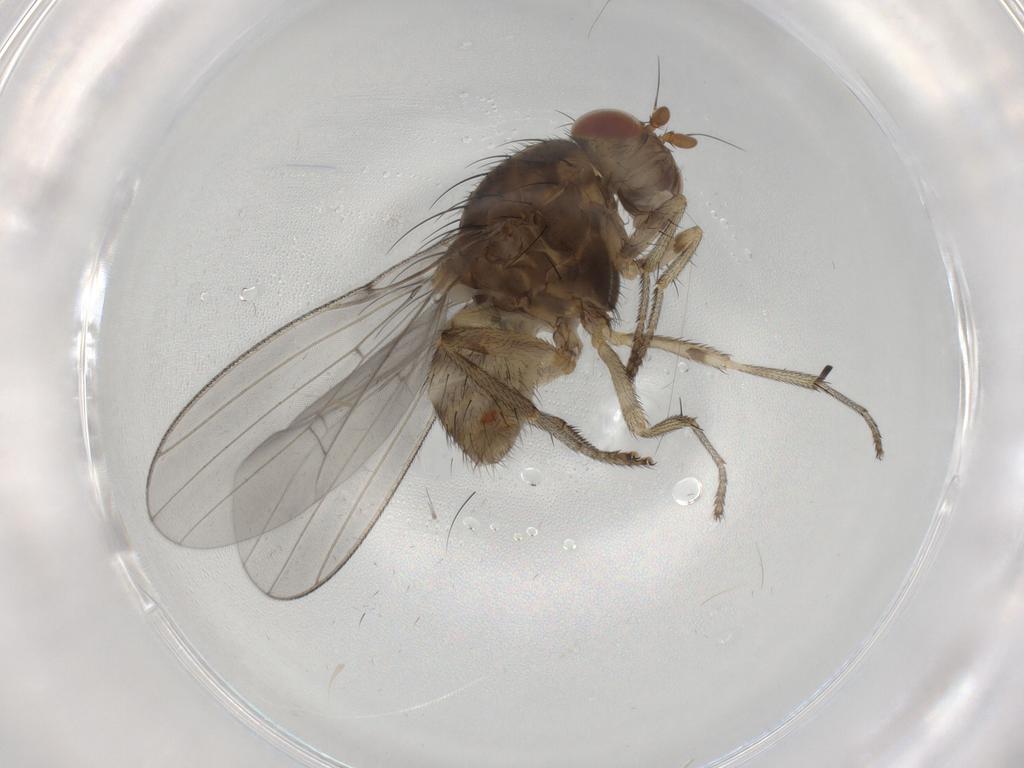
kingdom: Animalia
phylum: Arthropoda
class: Insecta
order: Diptera
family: Lauxaniidae
